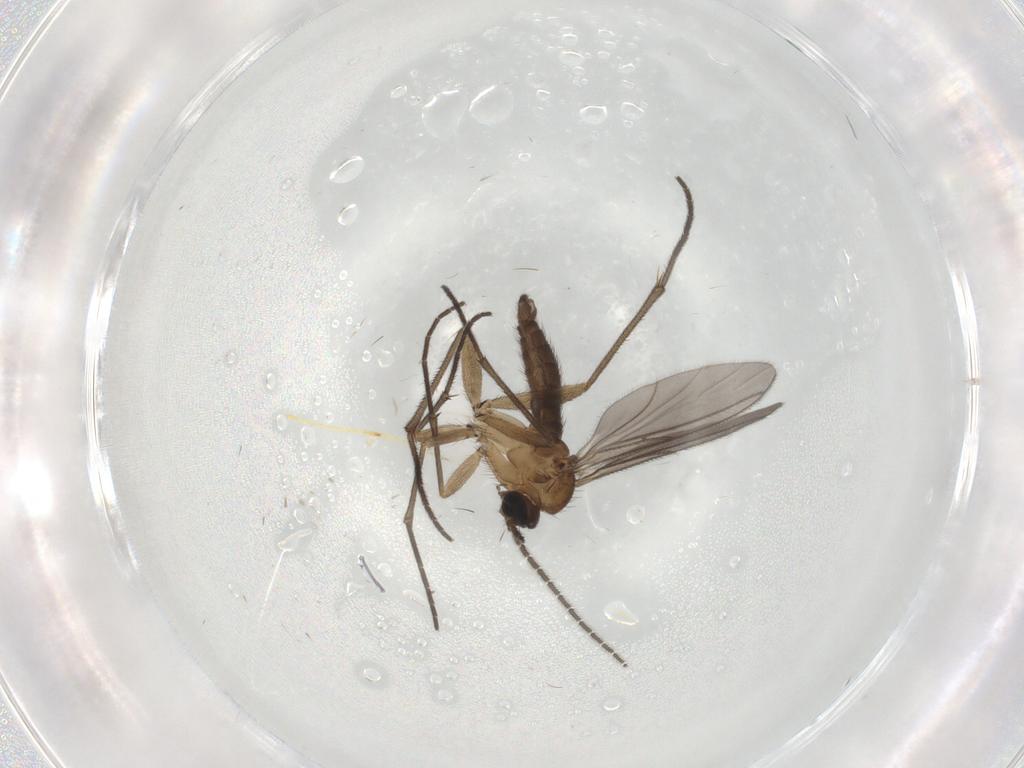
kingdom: Animalia
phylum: Arthropoda
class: Insecta
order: Diptera
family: Sciaridae
